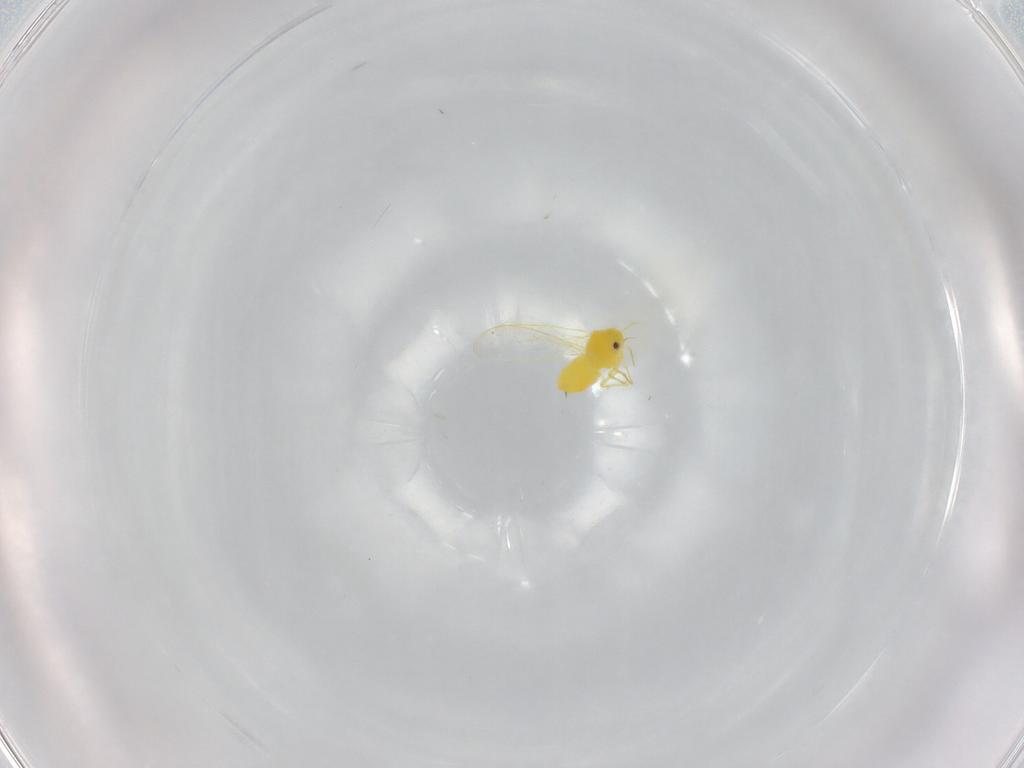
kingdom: Animalia
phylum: Arthropoda
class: Insecta
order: Hemiptera
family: Aleyrodidae
